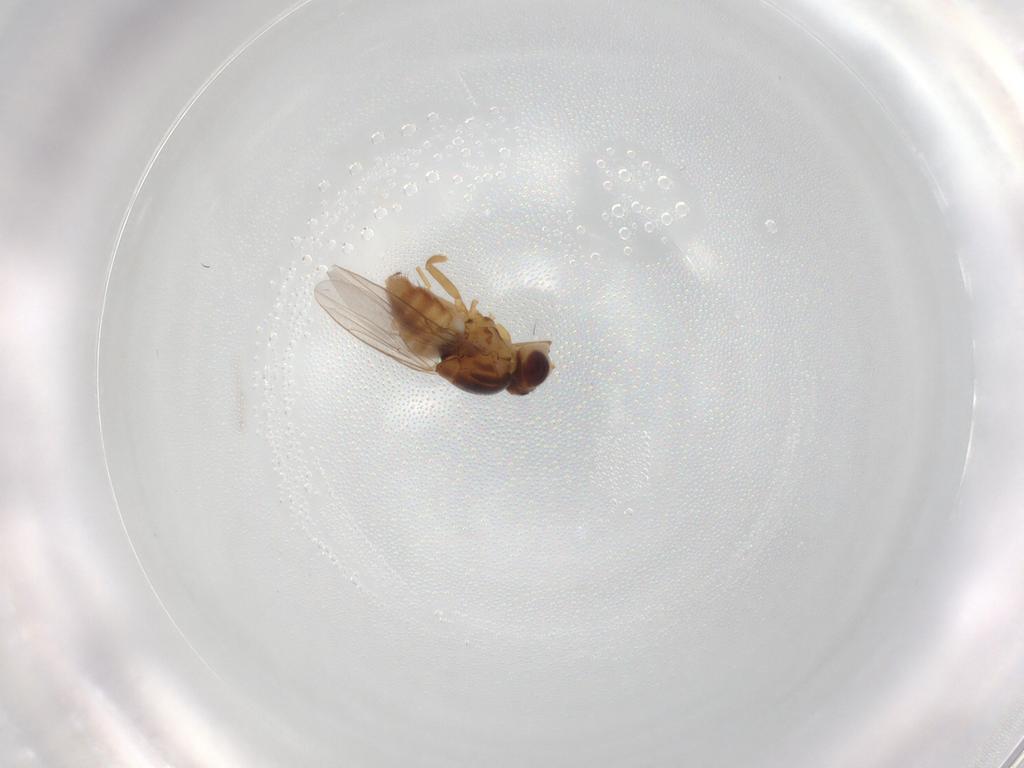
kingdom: Animalia
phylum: Arthropoda
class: Insecta
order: Diptera
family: Chloropidae
